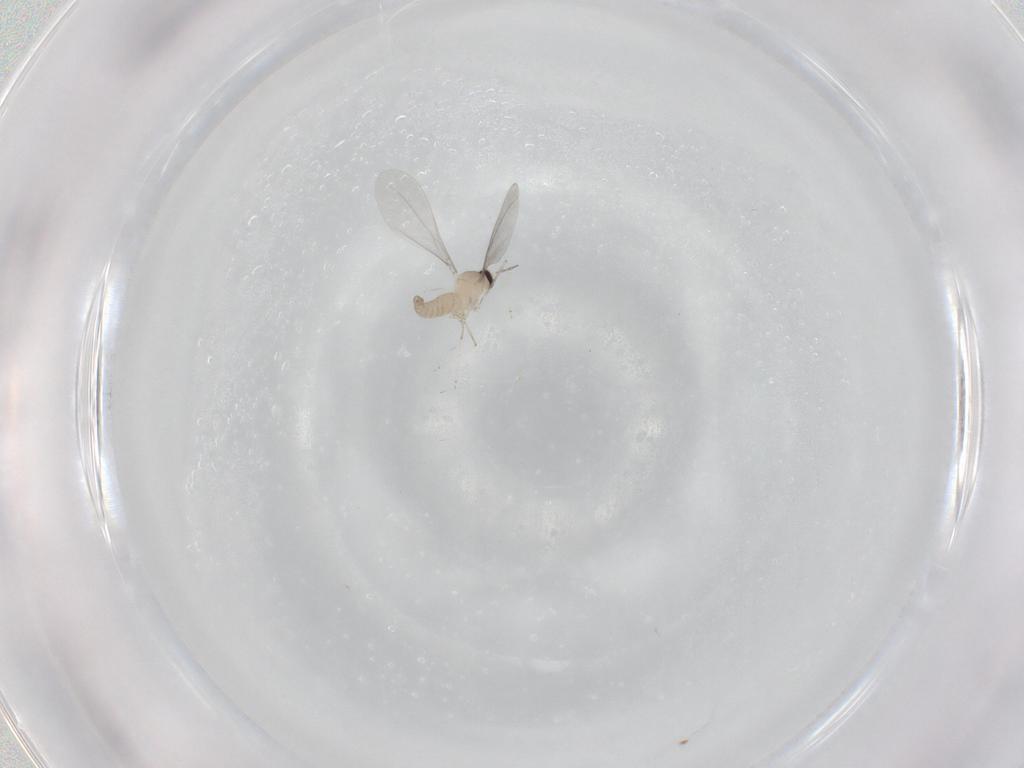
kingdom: Animalia
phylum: Arthropoda
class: Insecta
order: Diptera
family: Cecidomyiidae
